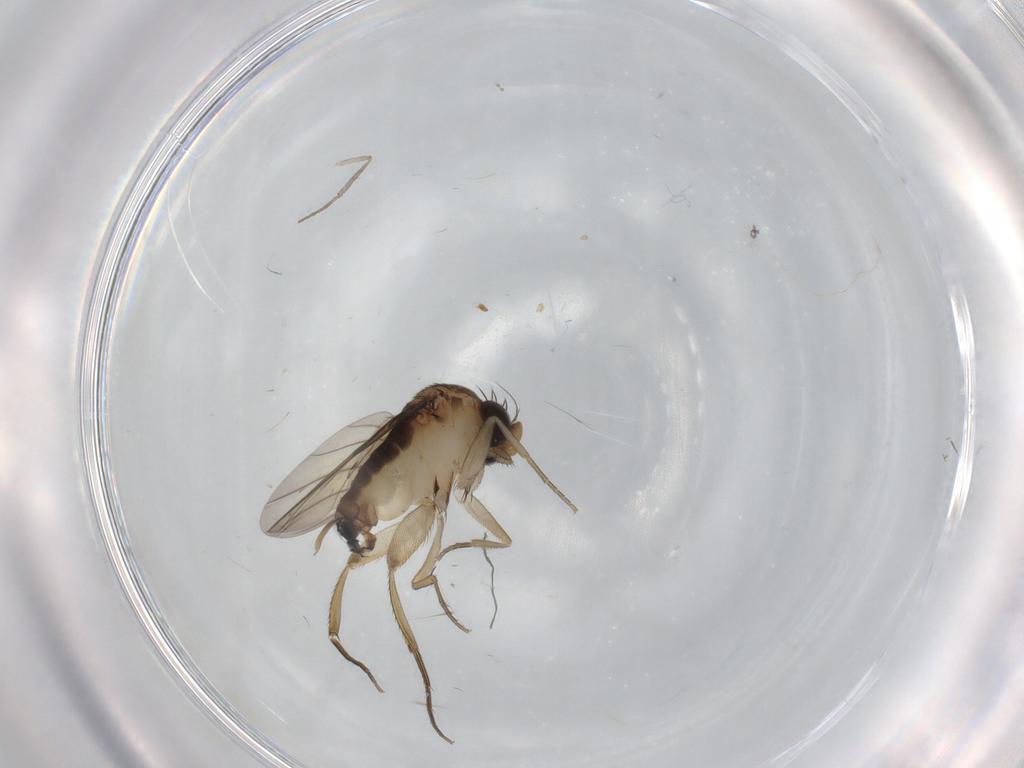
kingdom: Animalia
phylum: Arthropoda
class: Insecta
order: Diptera
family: Phoridae
